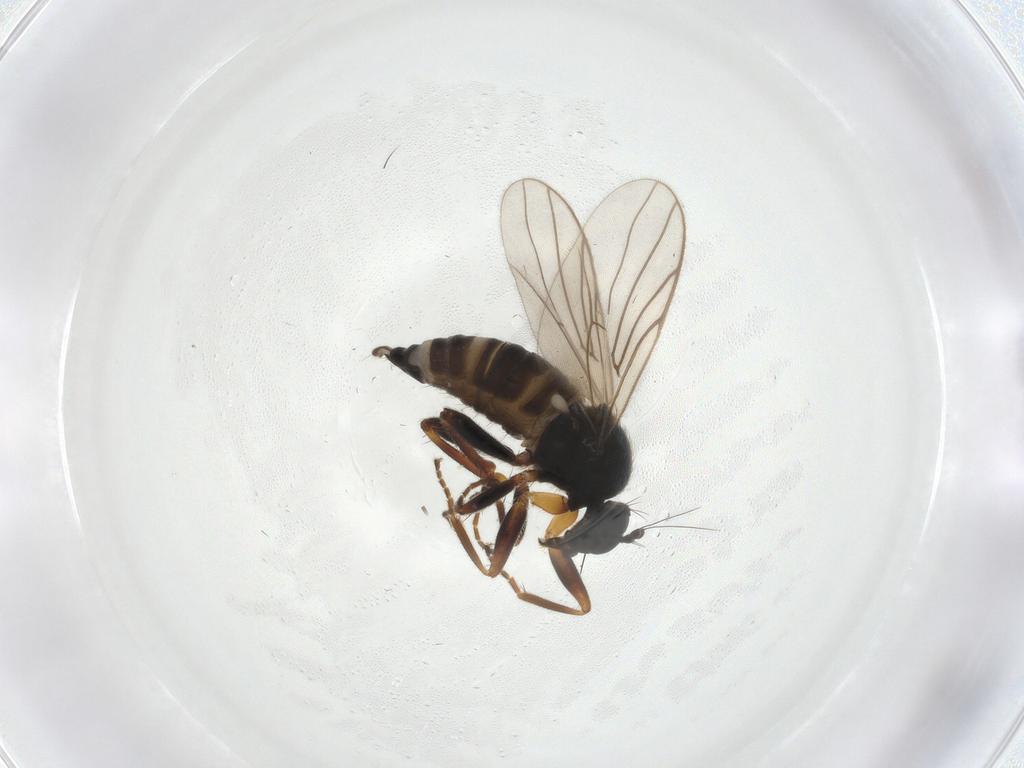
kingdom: Animalia
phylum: Arthropoda
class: Insecta
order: Diptera
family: Hybotidae
